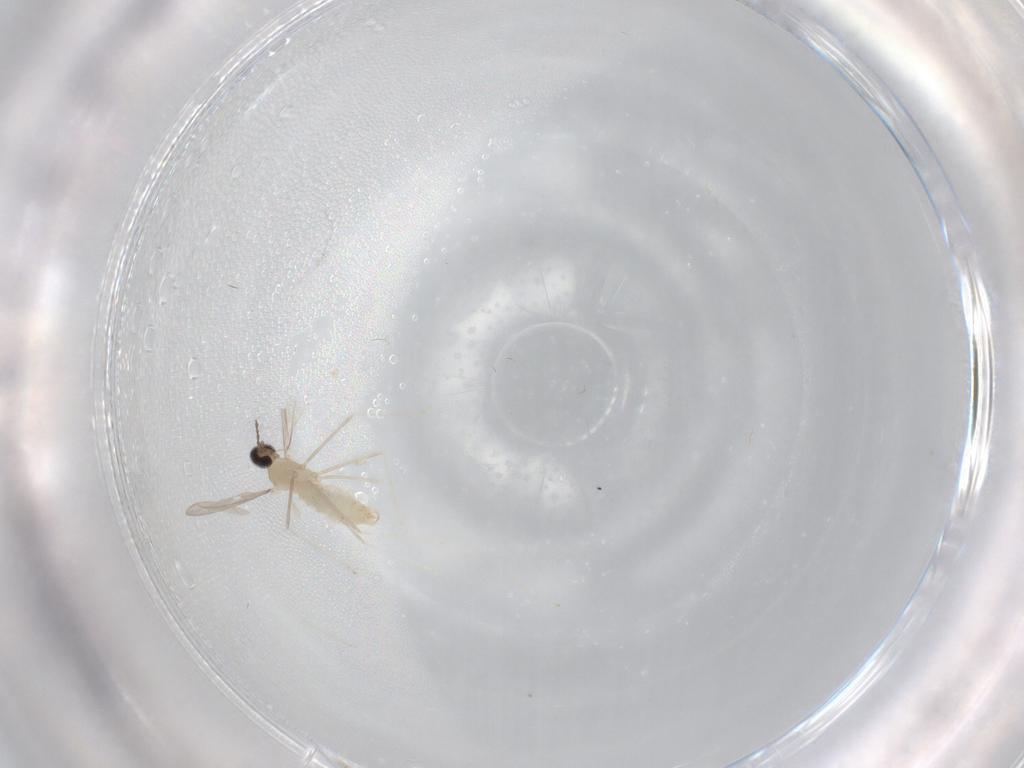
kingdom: Animalia
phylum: Arthropoda
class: Insecta
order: Diptera
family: Cecidomyiidae
